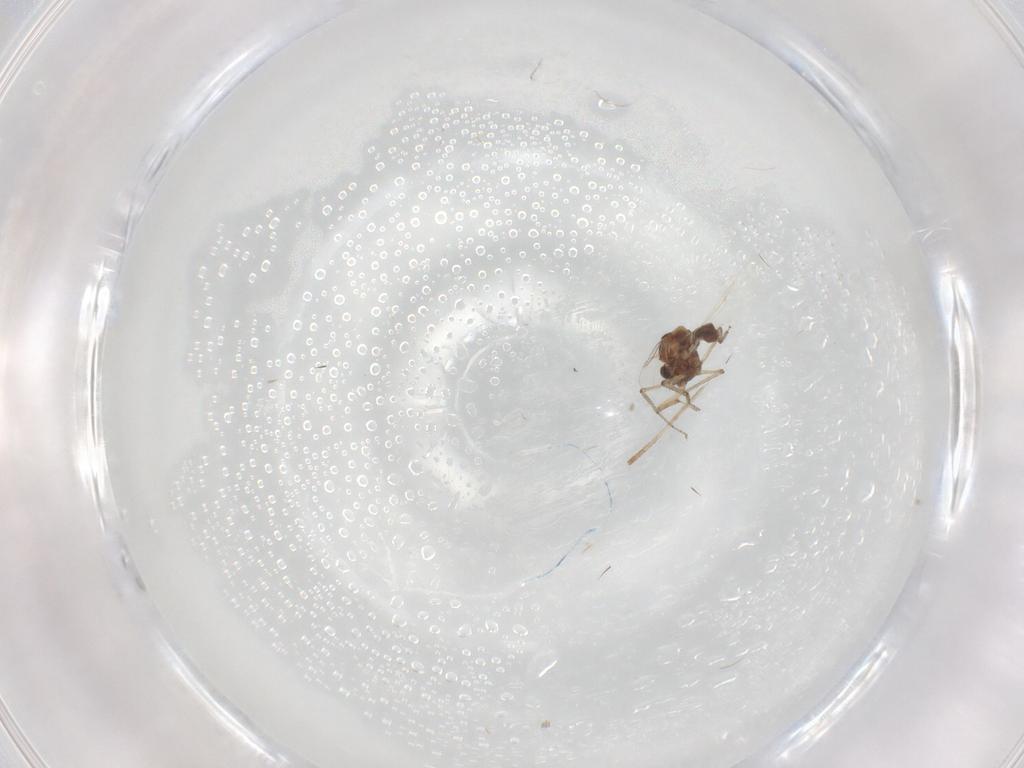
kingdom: Animalia
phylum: Arthropoda
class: Insecta
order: Diptera
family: Ceratopogonidae
